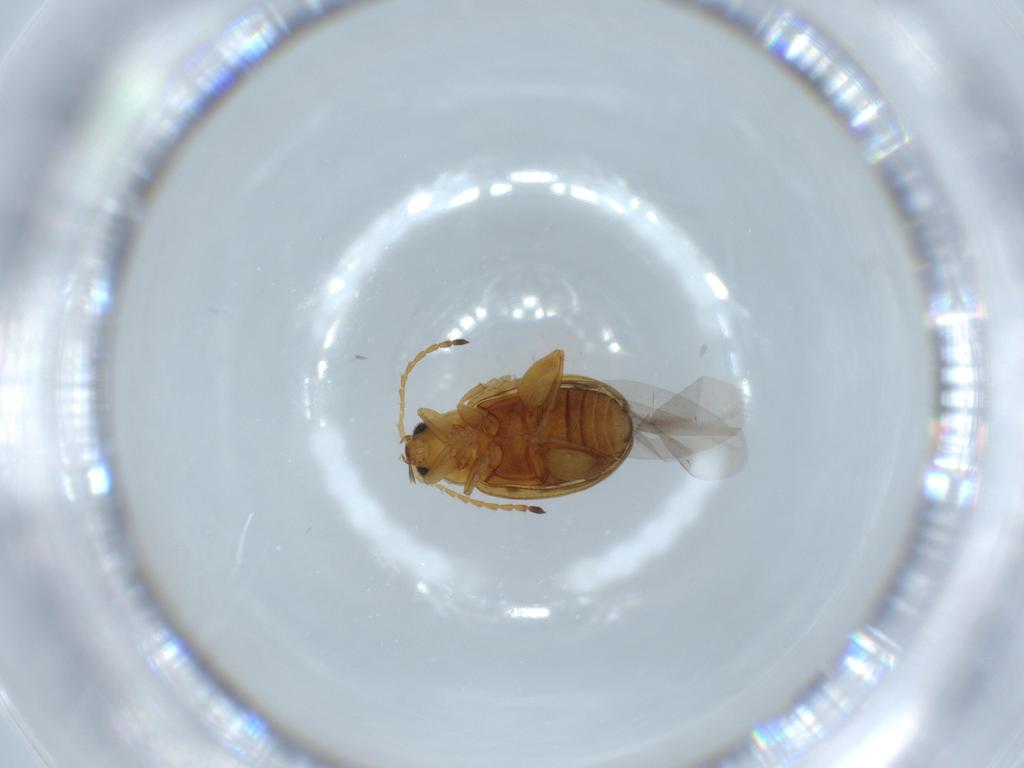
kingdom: Animalia
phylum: Arthropoda
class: Insecta
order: Coleoptera
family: Chrysomelidae
